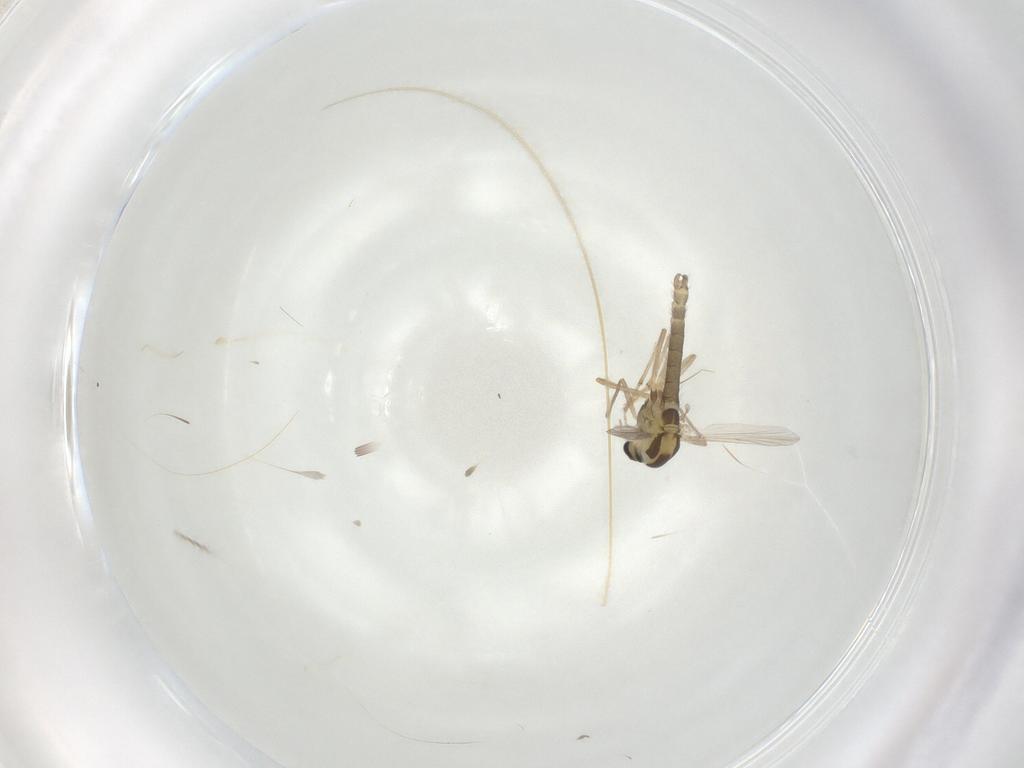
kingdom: Animalia
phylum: Arthropoda
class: Insecta
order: Diptera
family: Chironomidae
